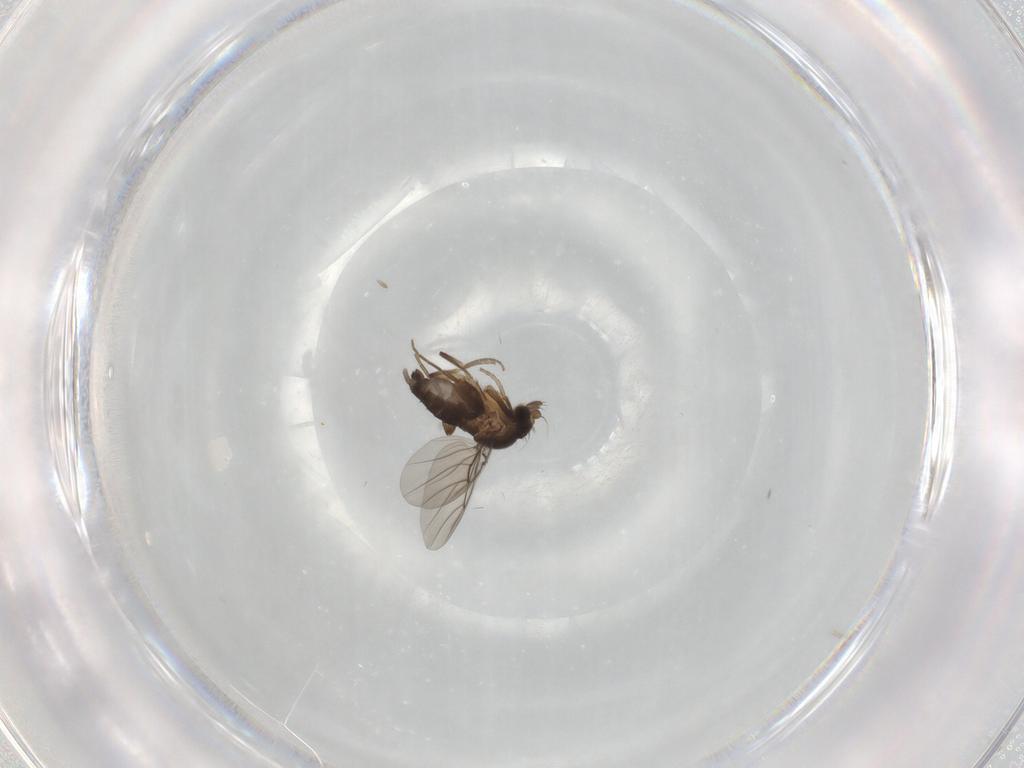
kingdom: Animalia
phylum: Arthropoda
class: Insecta
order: Diptera
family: Phoridae
